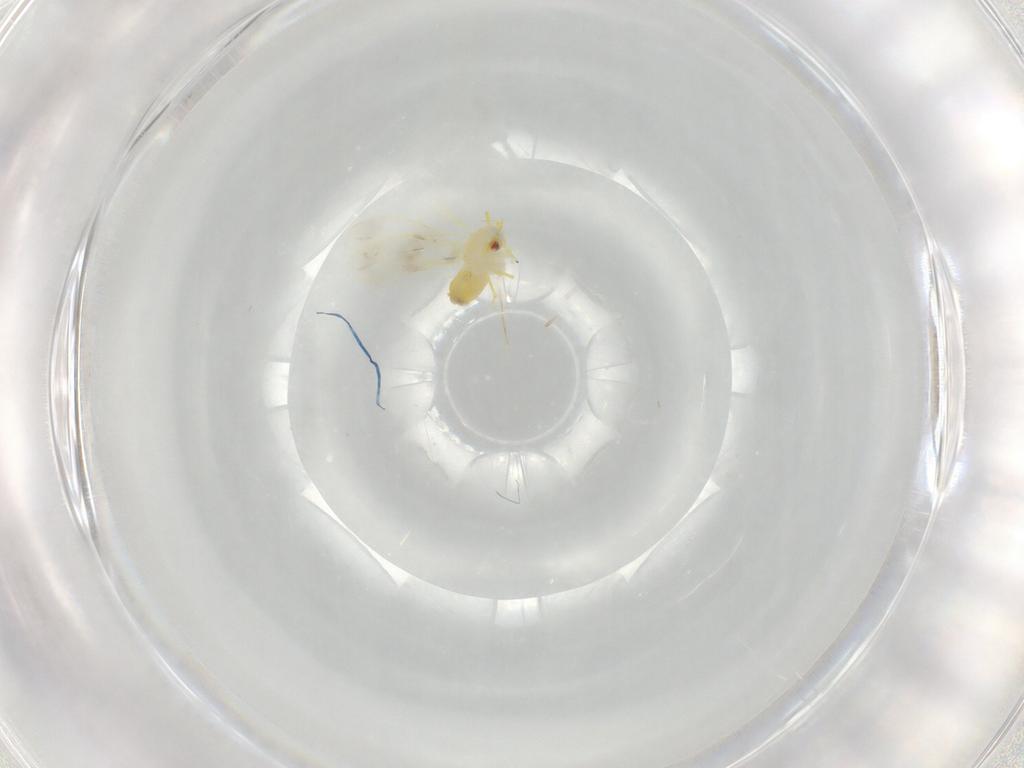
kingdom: Animalia
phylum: Arthropoda
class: Insecta
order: Hemiptera
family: Aleyrodidae
